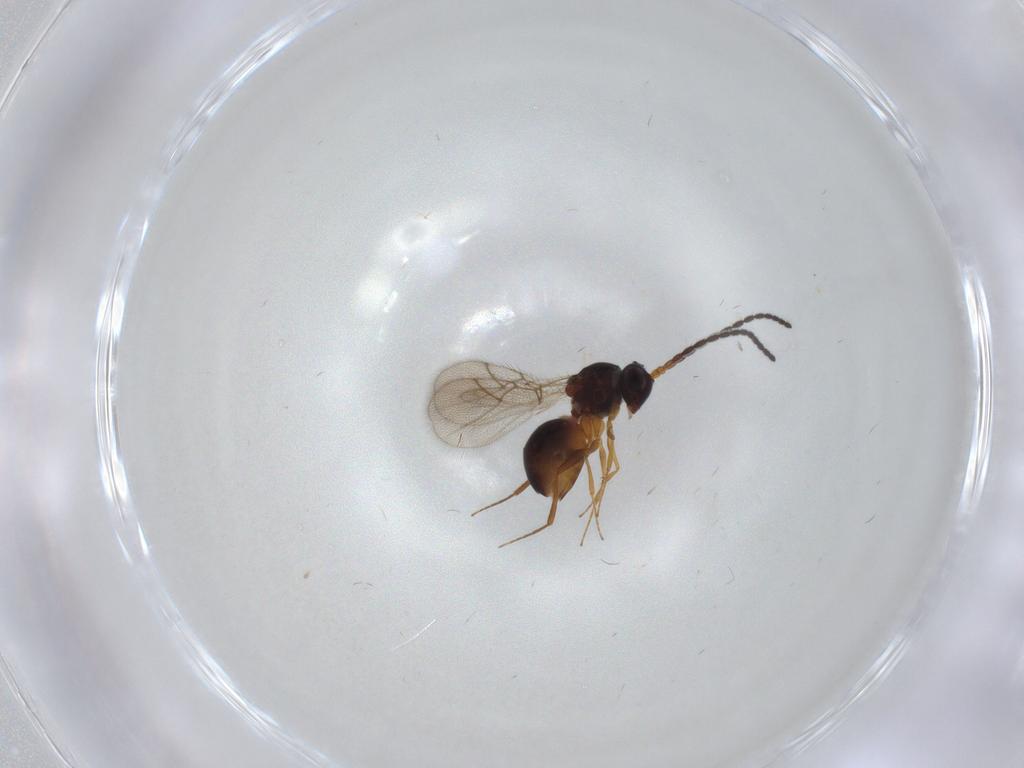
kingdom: Animalia
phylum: Arthropoda
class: Insecta
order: Hymenoptera
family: Figitidae
